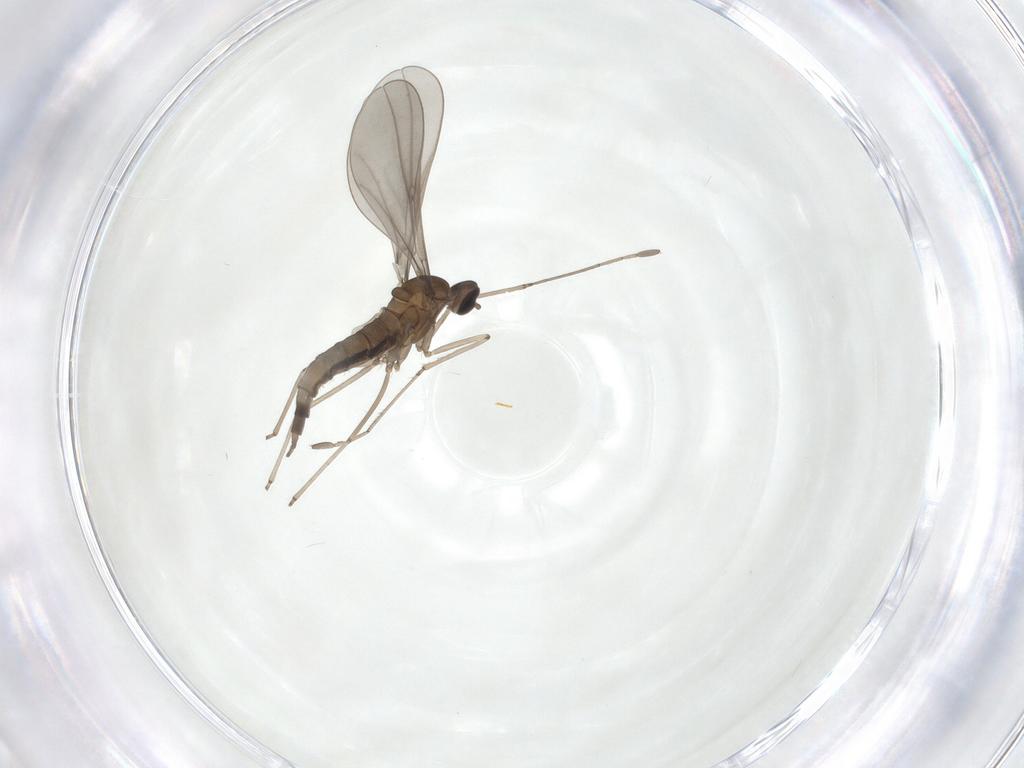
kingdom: Animalia
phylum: Arthropoda
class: Insecta
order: Diptera
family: Cecidomyiidae
